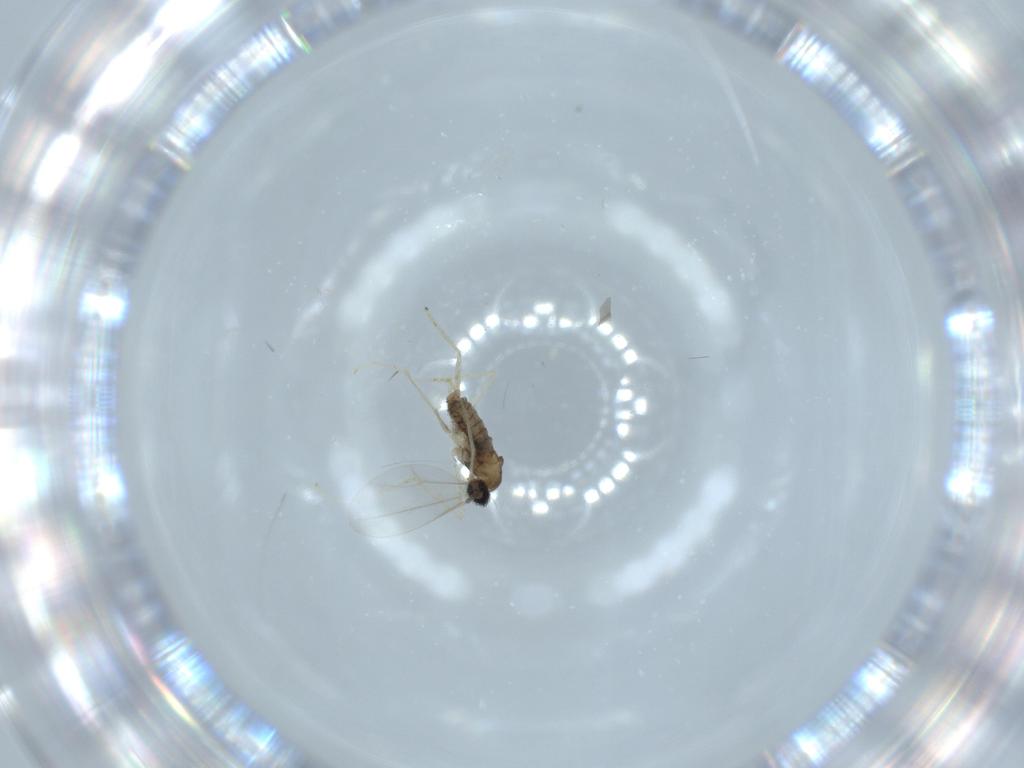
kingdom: Animalia
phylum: Arthropoda
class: Insecta
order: Diptera
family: Cecidomyiidae
